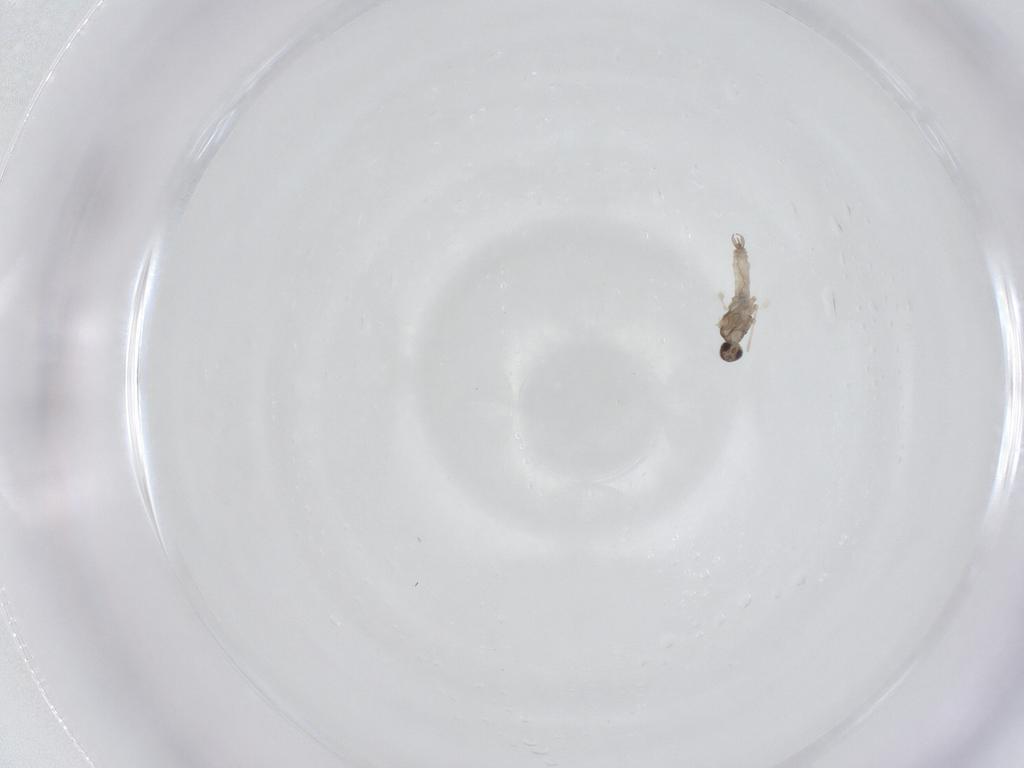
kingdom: Animalia
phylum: Arthropoda
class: Insecta
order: Diptera
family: Cecidomyiidae
